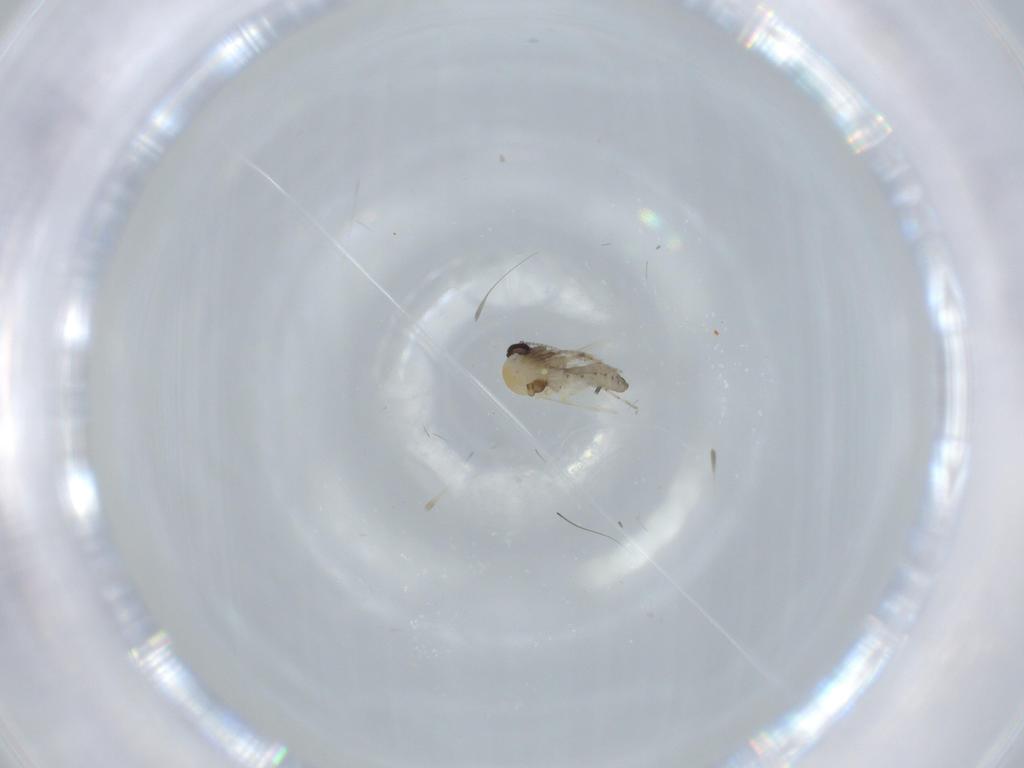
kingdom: Animalia
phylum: Arthropoda
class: Insecta
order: Diptera
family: Ceratopogonidae
